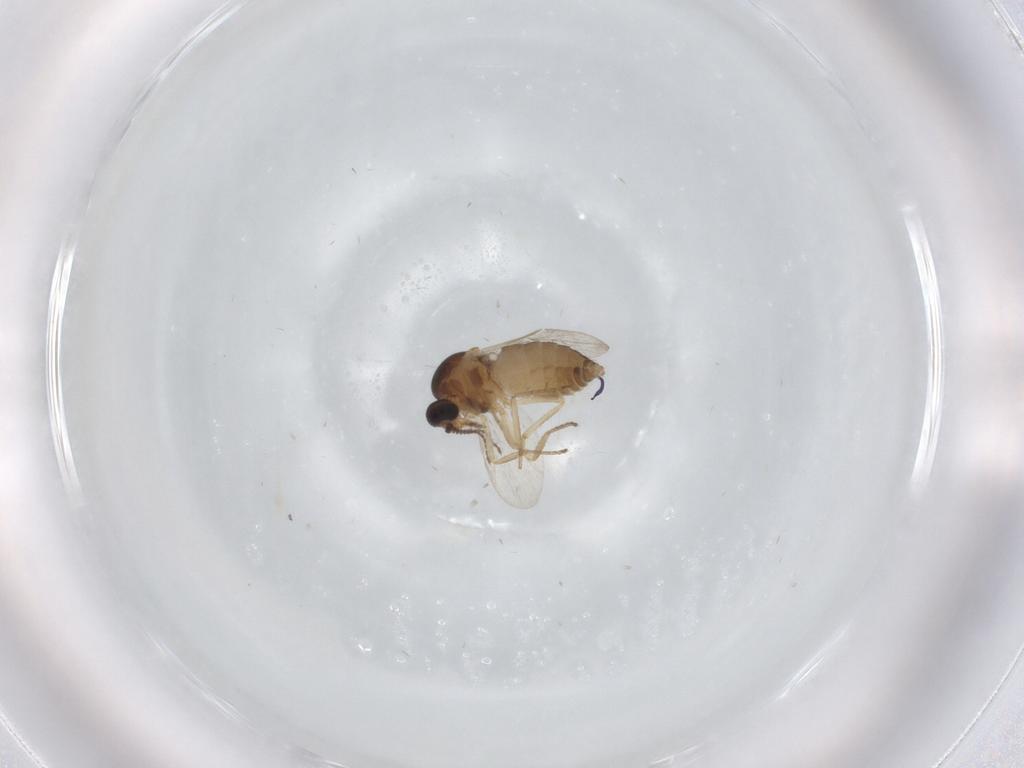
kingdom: Animalia
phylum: Arthropoda
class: Insecta
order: Diptera
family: Ceratopogonidae
